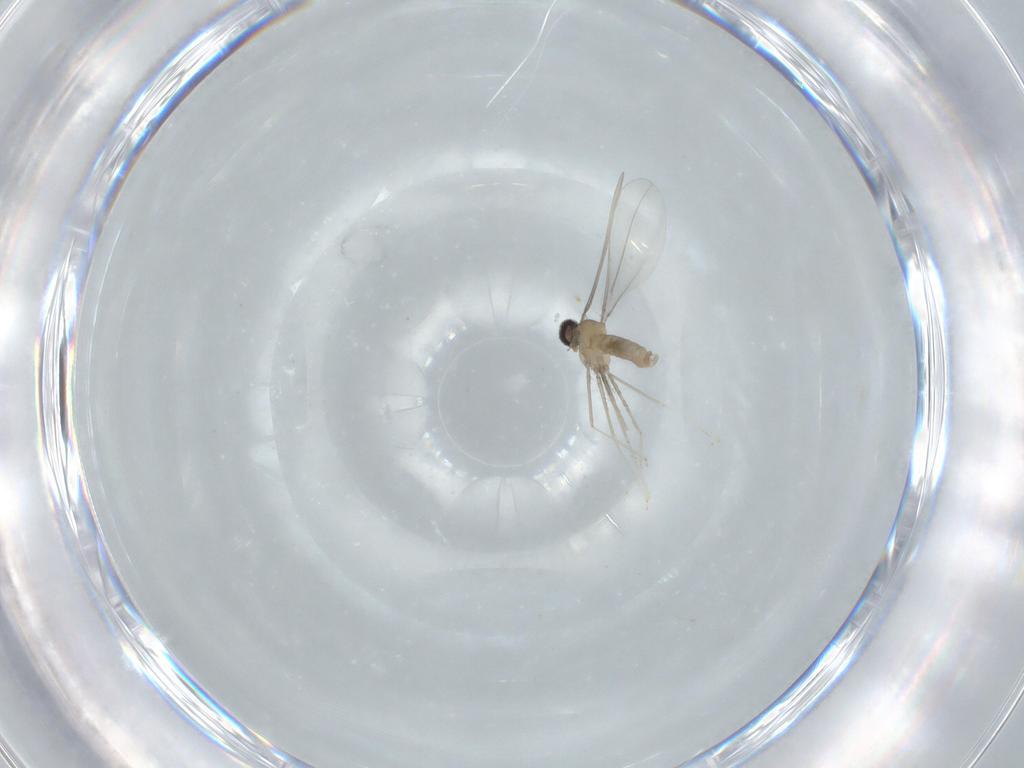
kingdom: Animalia
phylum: Arthropoda
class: Insecta
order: Diptera
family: Cecidomyiidae
